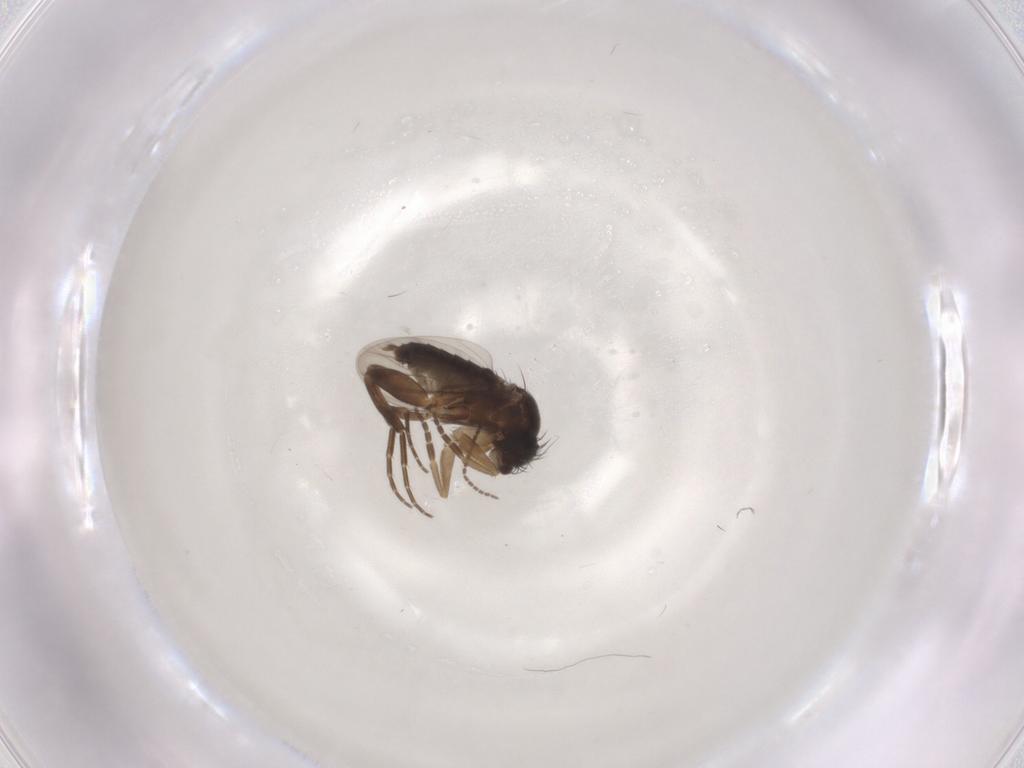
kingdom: Animalia
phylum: Arthropoda
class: Insecta
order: Diptera
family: Phoridae
